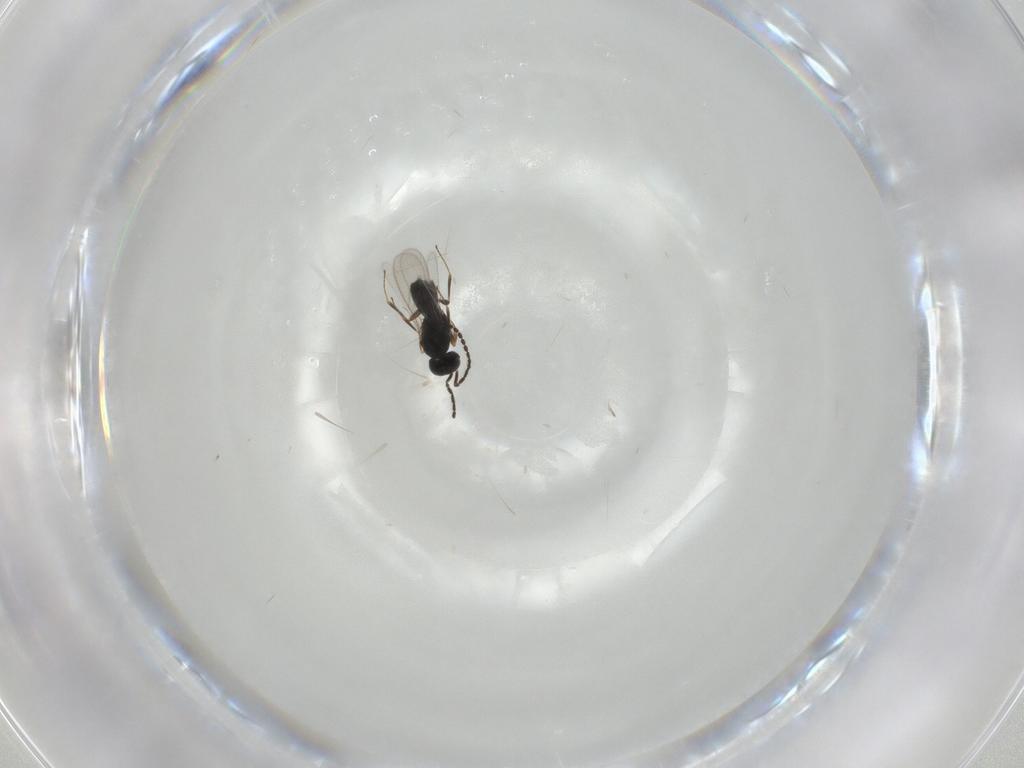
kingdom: Animalia
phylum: Arthropoda
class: Insecta
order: Hymenoptera
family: Scelionidae
